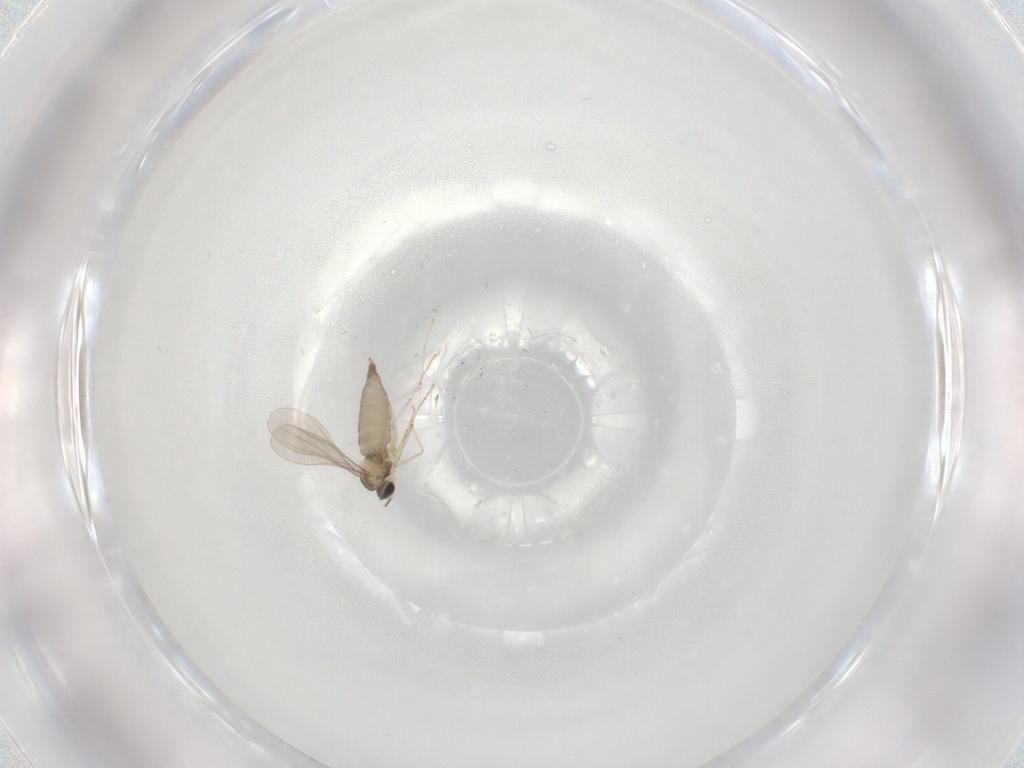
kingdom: Animalia
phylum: Arthropoda
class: Insecta
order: Diptera
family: Cecidomyiidae
